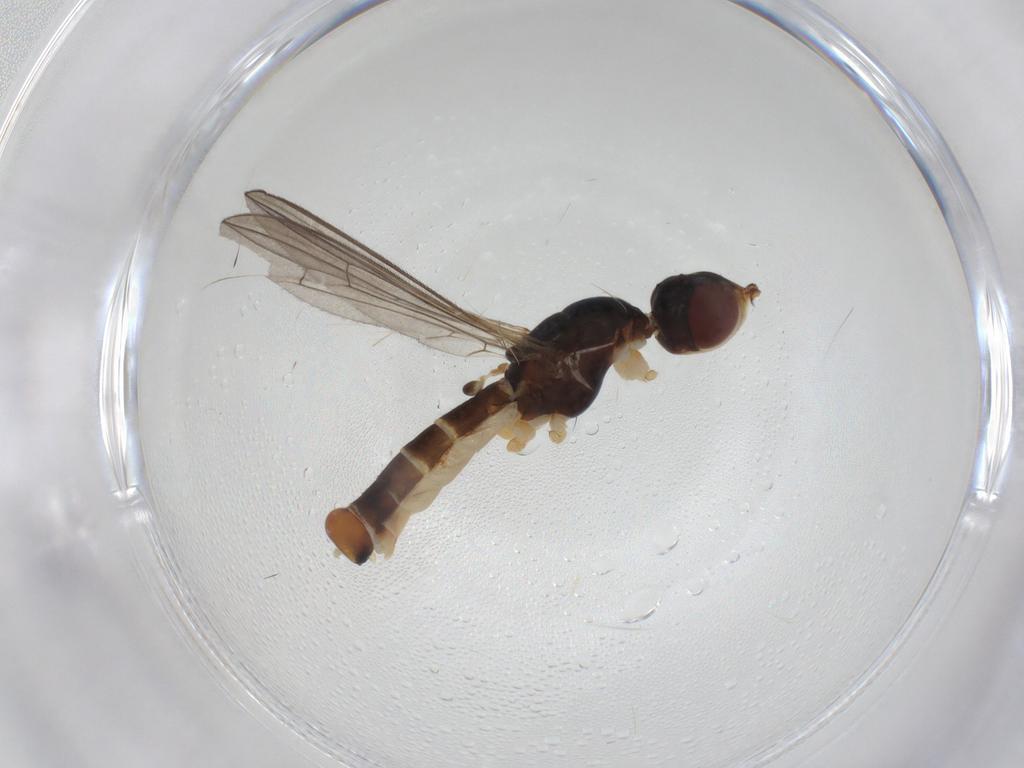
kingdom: Animalia
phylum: Arthropoda
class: Insecta
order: Diptera
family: Micropezidae
